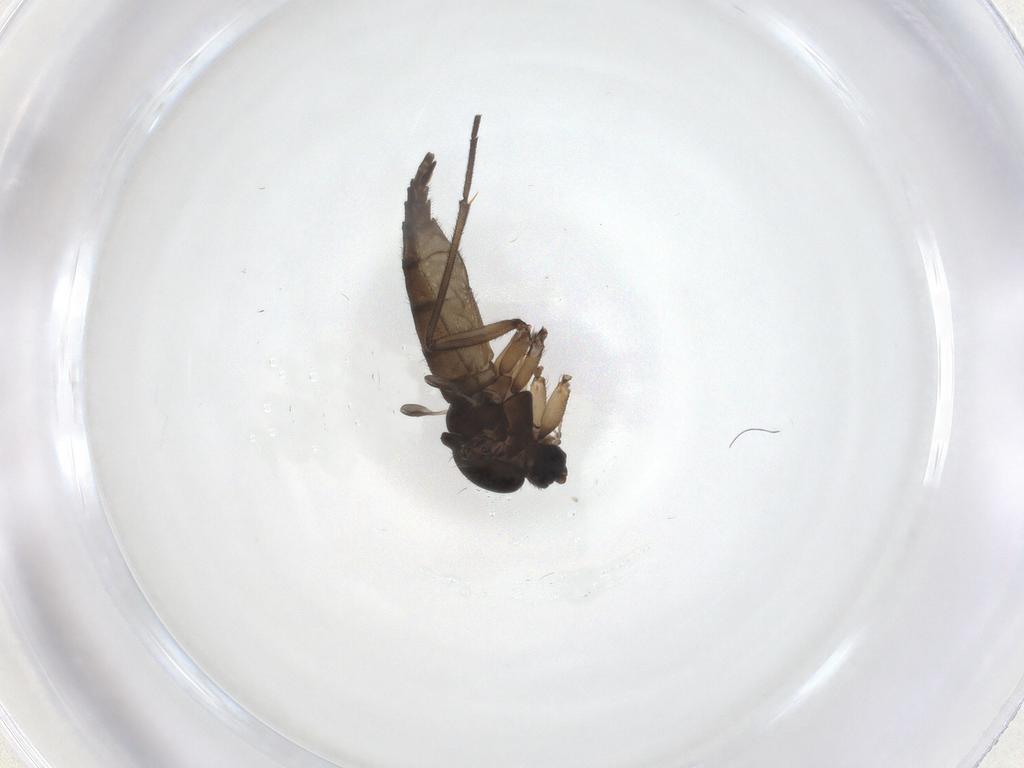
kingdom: Animalia
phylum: Arthropoda
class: Insecta
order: Diptera
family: Sciaridae
